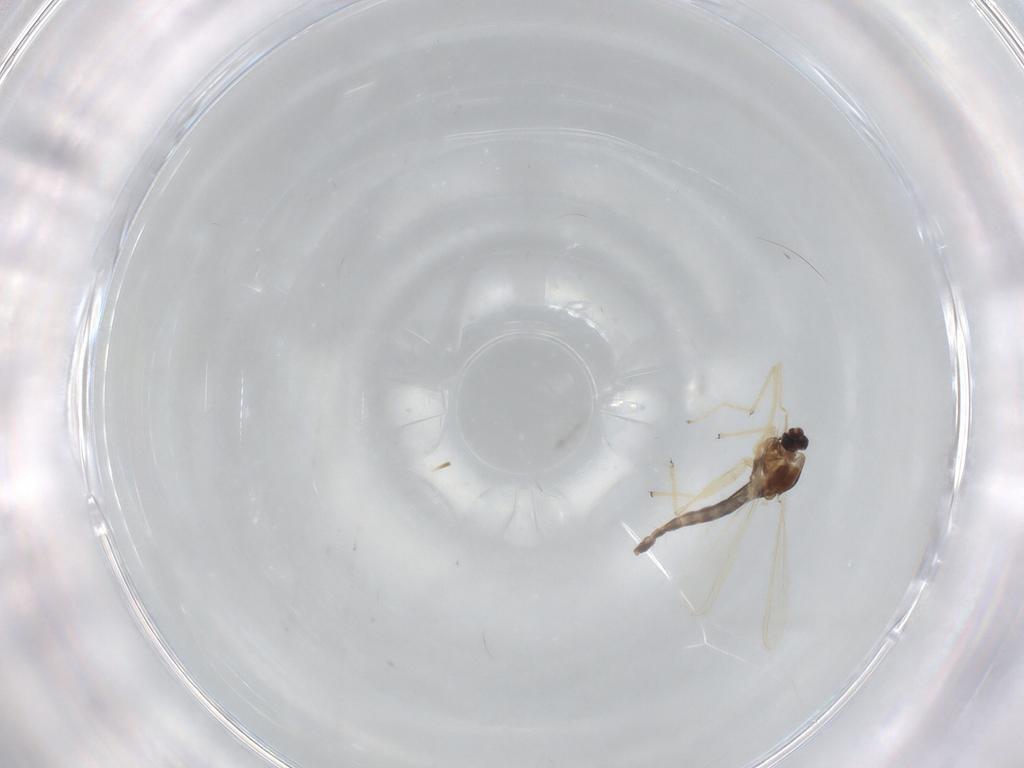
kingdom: Animalia
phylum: Arthropoda
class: Insecta
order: Diptera
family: Chironomidae
